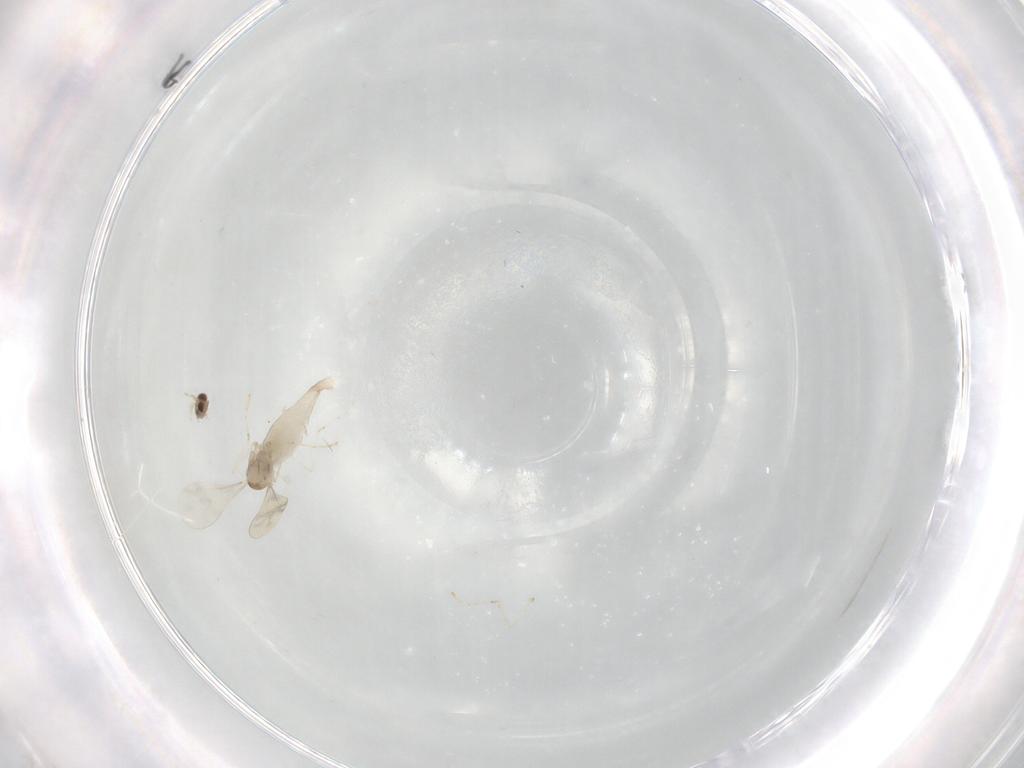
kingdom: Animalia
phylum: Arthropoda
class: Insecta
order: Diptera
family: Cecidomyiidae
